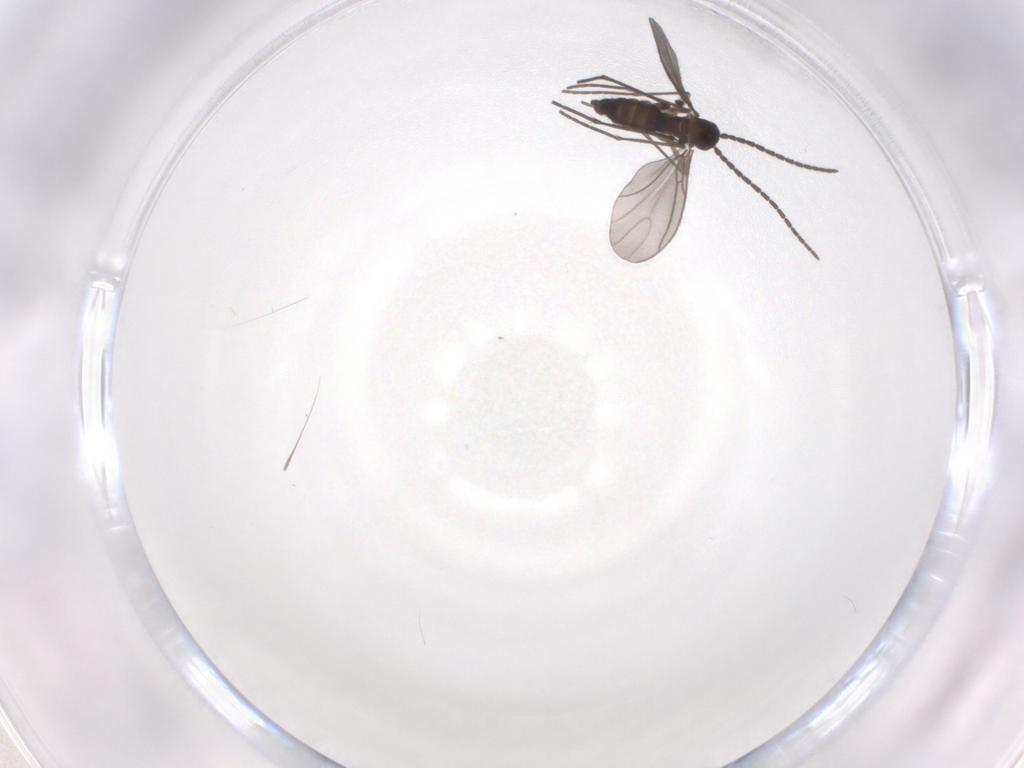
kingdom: Animalia
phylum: Arthropoda
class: Insecta
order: Diptera
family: Sciaridae
